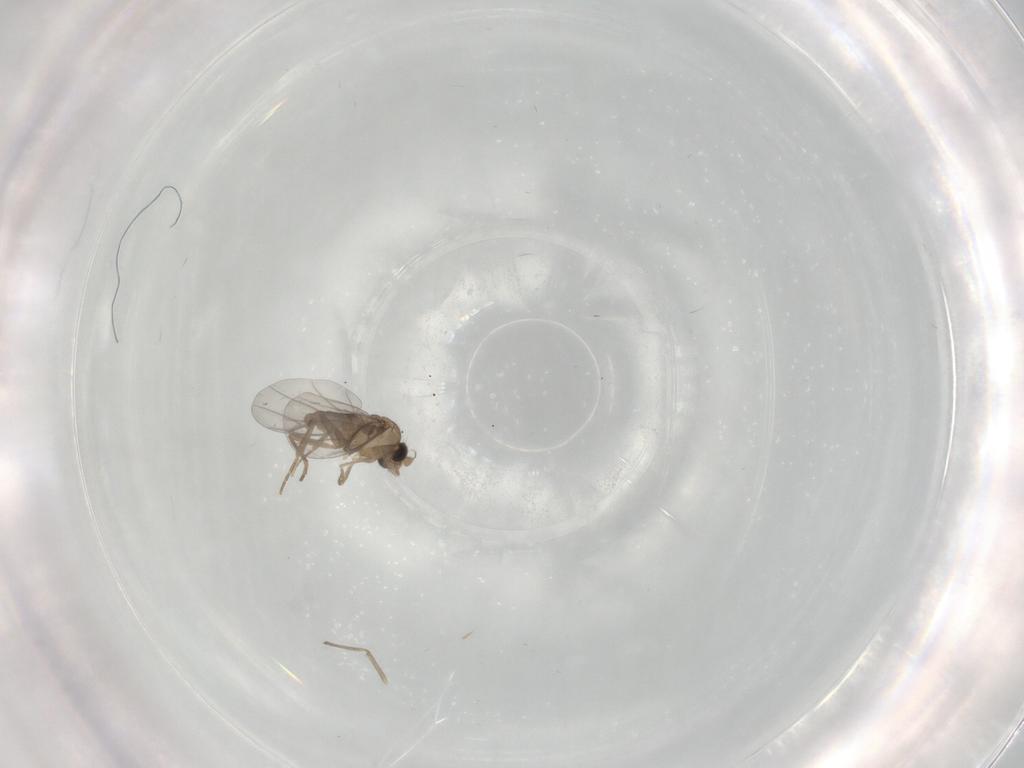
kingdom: Animalia
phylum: Arthropoda
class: Insecta
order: Diptera
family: Chironomidae
